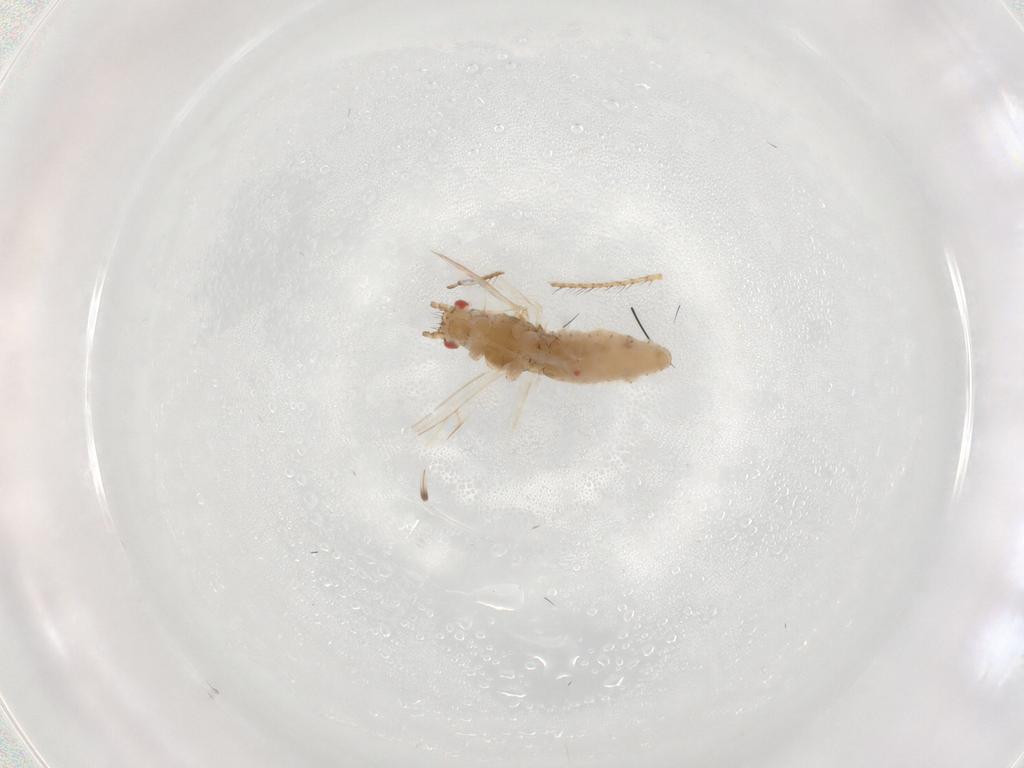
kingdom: Animalia
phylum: Arthropoda
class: Insecta
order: Hemiptera
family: Aphididae
